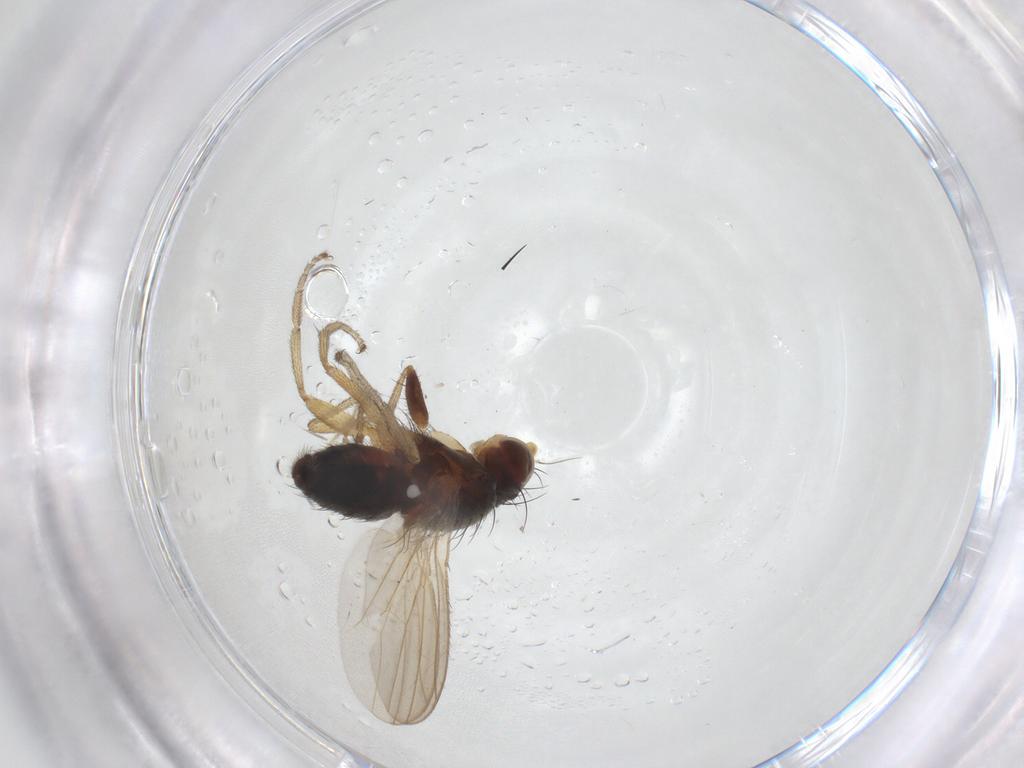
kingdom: Animalia
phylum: Arthropoda
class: Insecta
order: Diptera
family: Heleomyzidae
